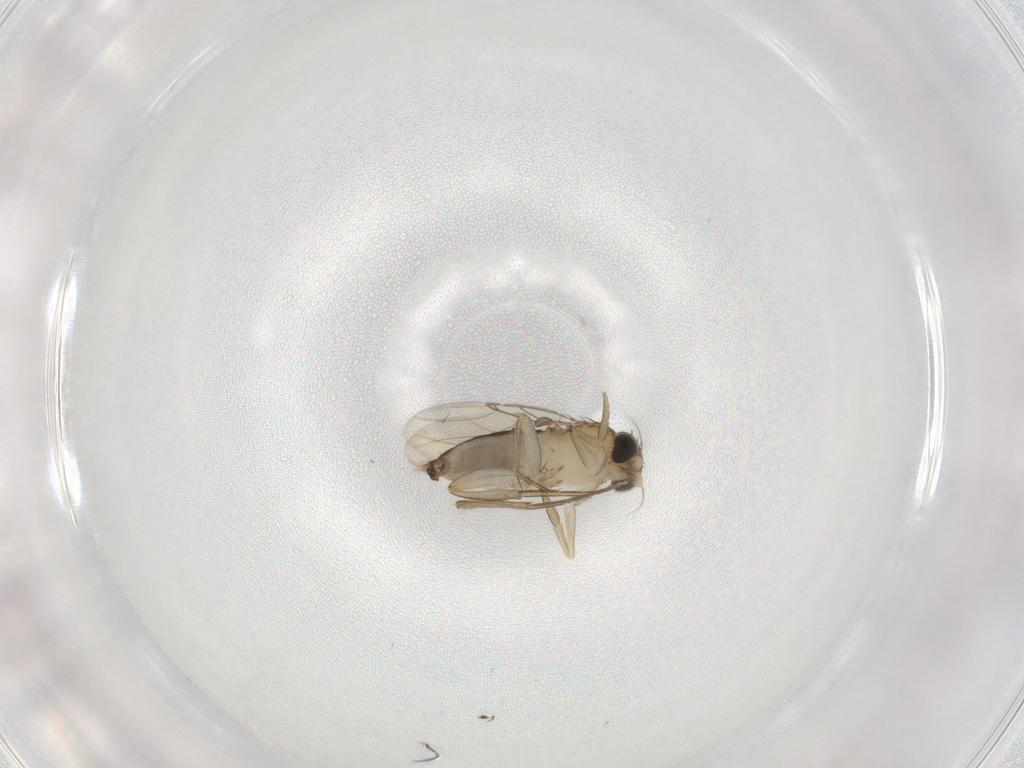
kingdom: Animalia
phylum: Arthropoda
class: Insecta
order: Diptera
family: Phoridae
